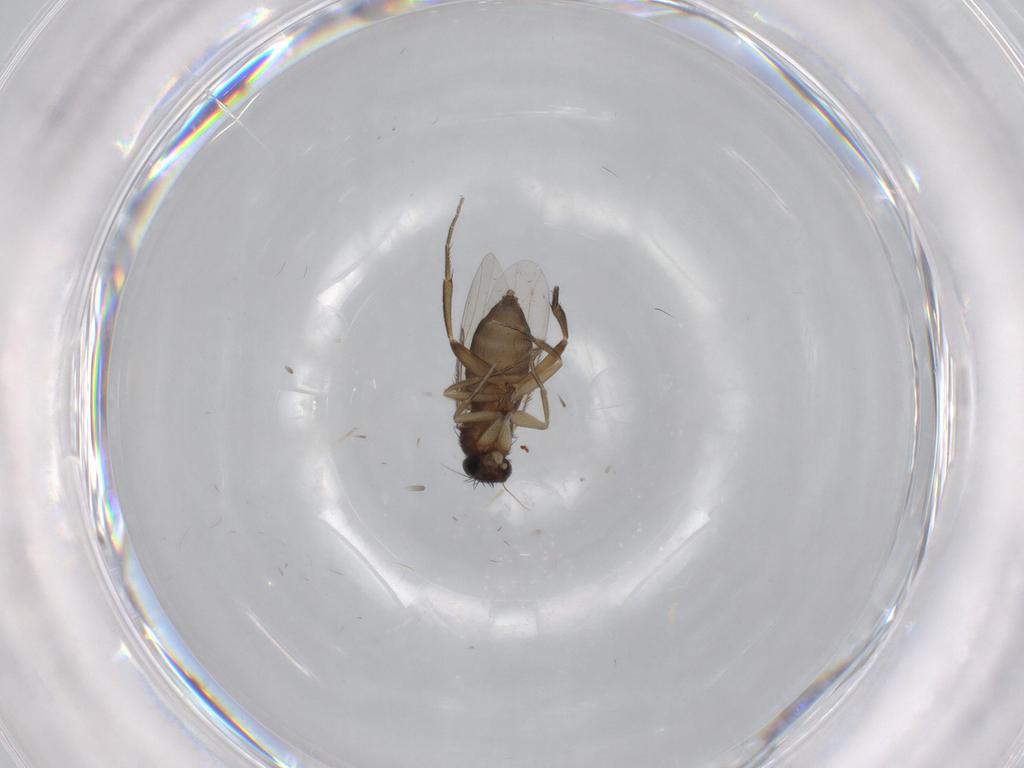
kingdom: Animalia
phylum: Arthropoda
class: Insecta
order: Diptera
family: Phoridae
